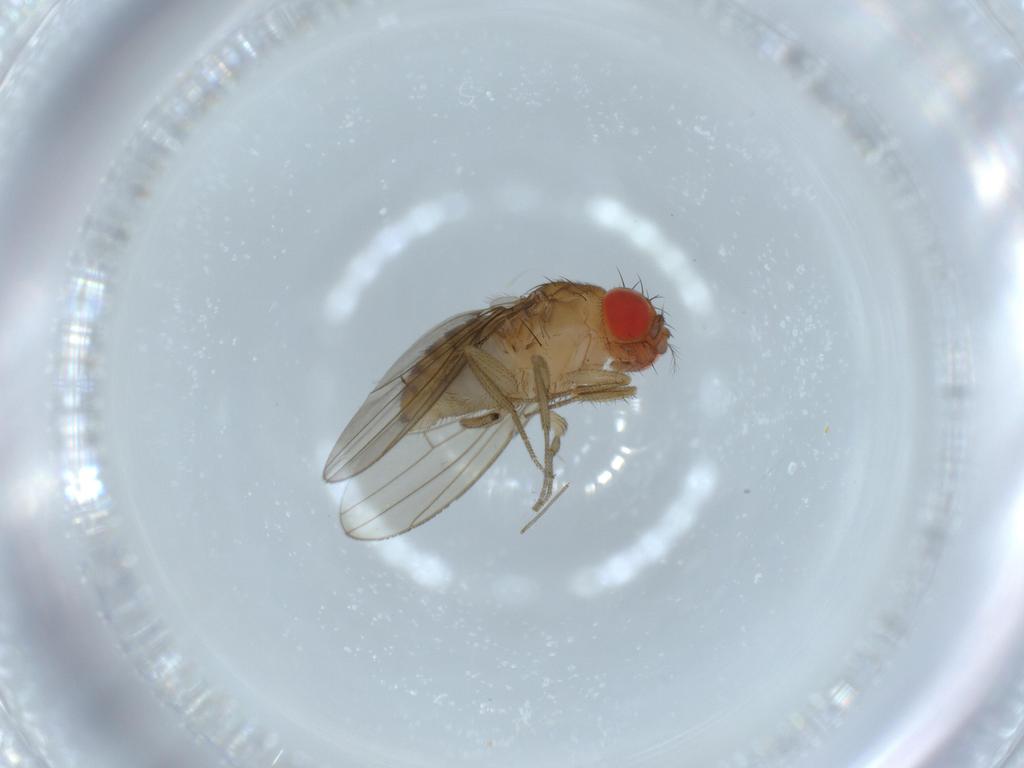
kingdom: Animalia
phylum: Arthropoda
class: Insecta
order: Diptera
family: Drosophilidae
